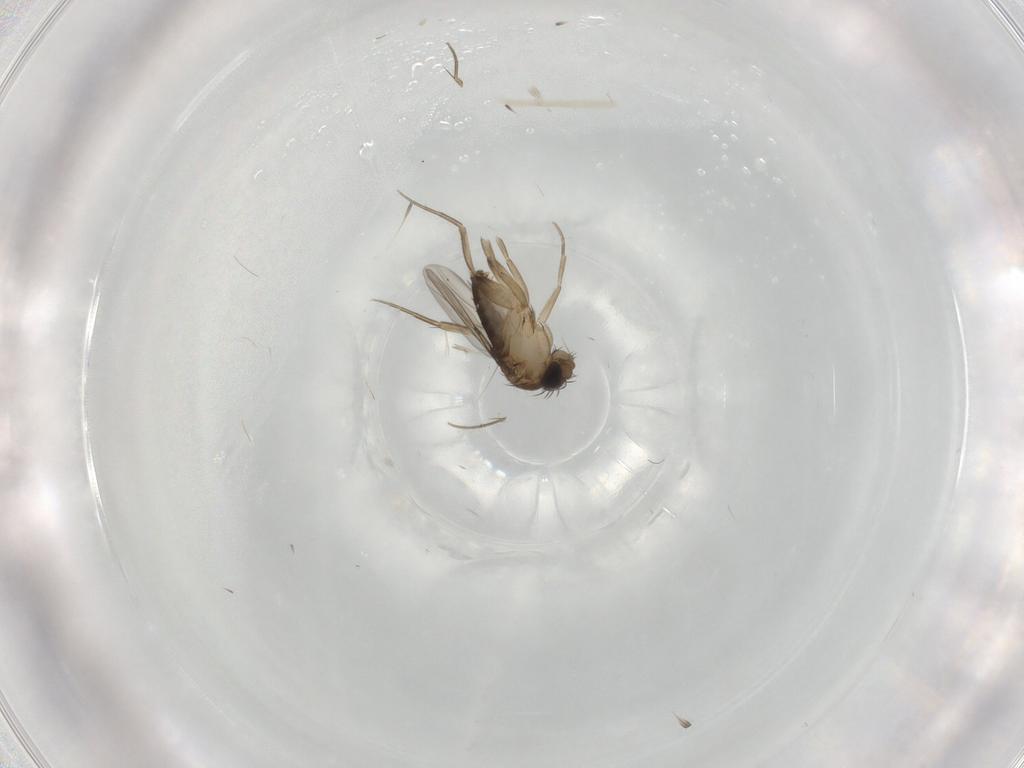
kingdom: Animalia
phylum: Arthropoda
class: Insecta
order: Diptera
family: Phoridae
